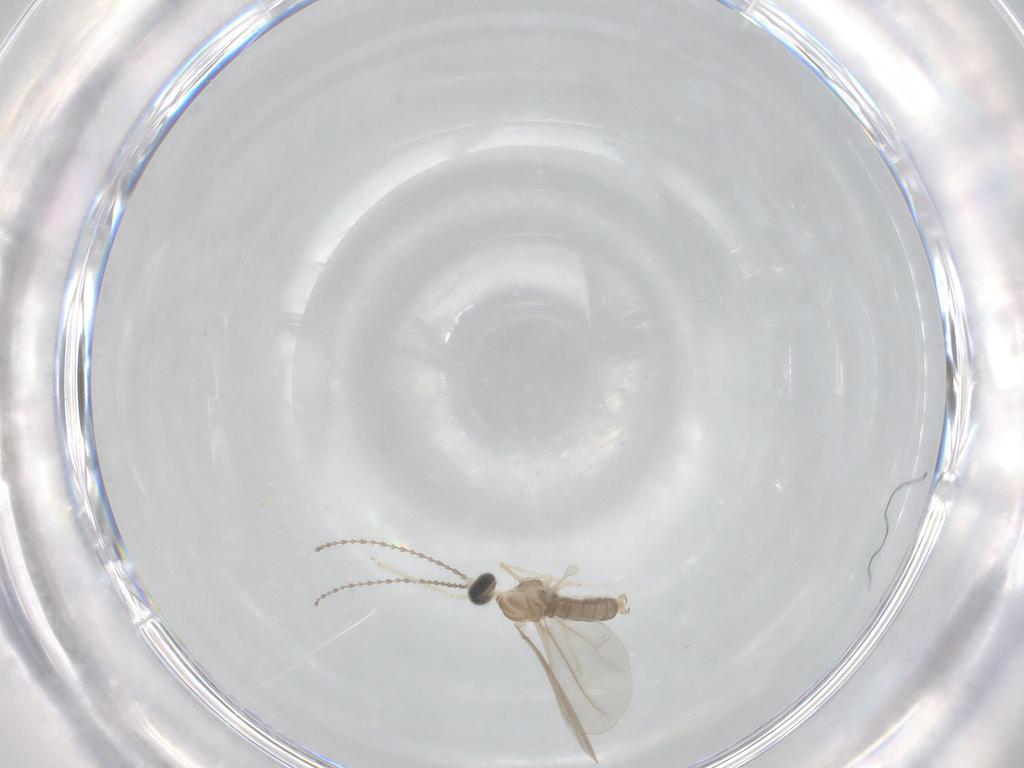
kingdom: Animalia
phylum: Arthropoda
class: Insecta
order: Diptera
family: Cecidomyiidae
